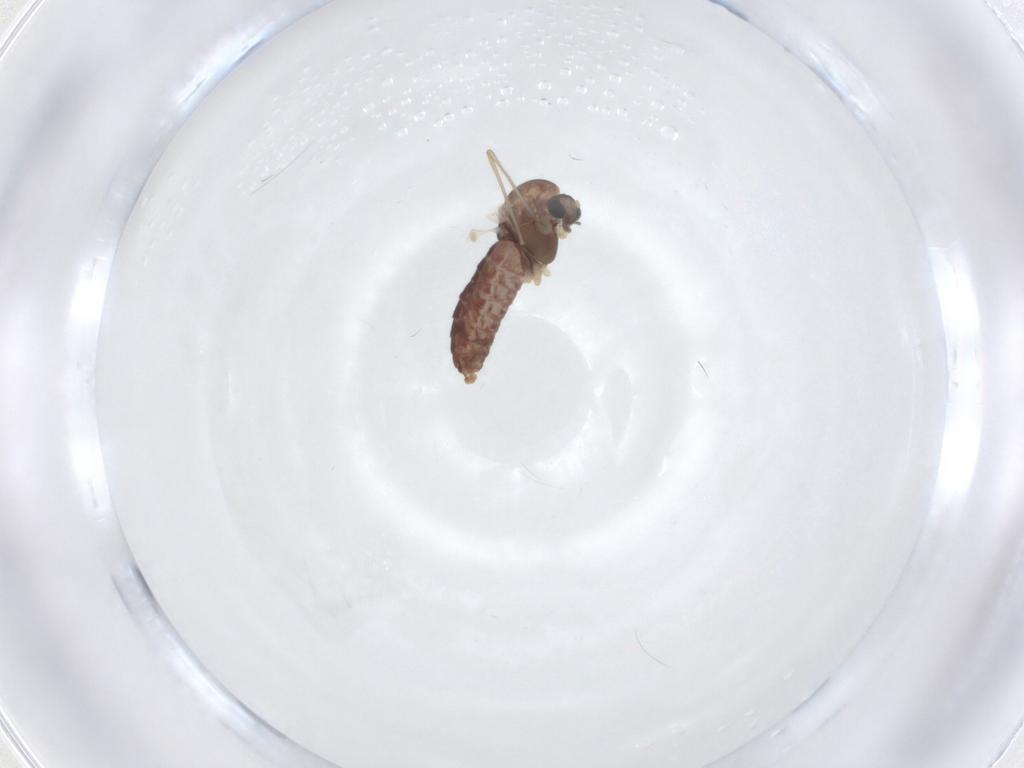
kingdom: Animalia
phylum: Arthropoda
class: Insecta
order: Diptera
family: Chironomidae
